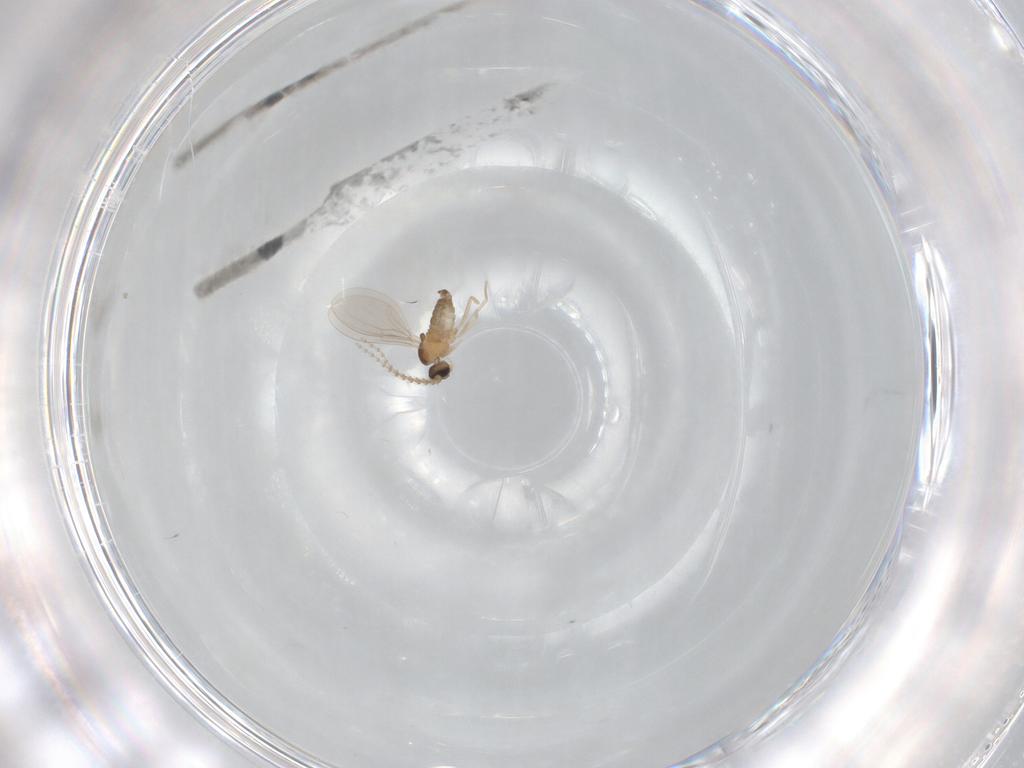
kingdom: Animalia
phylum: Arthropoda
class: Insecta
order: Diptera
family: Cecidomyiidae
